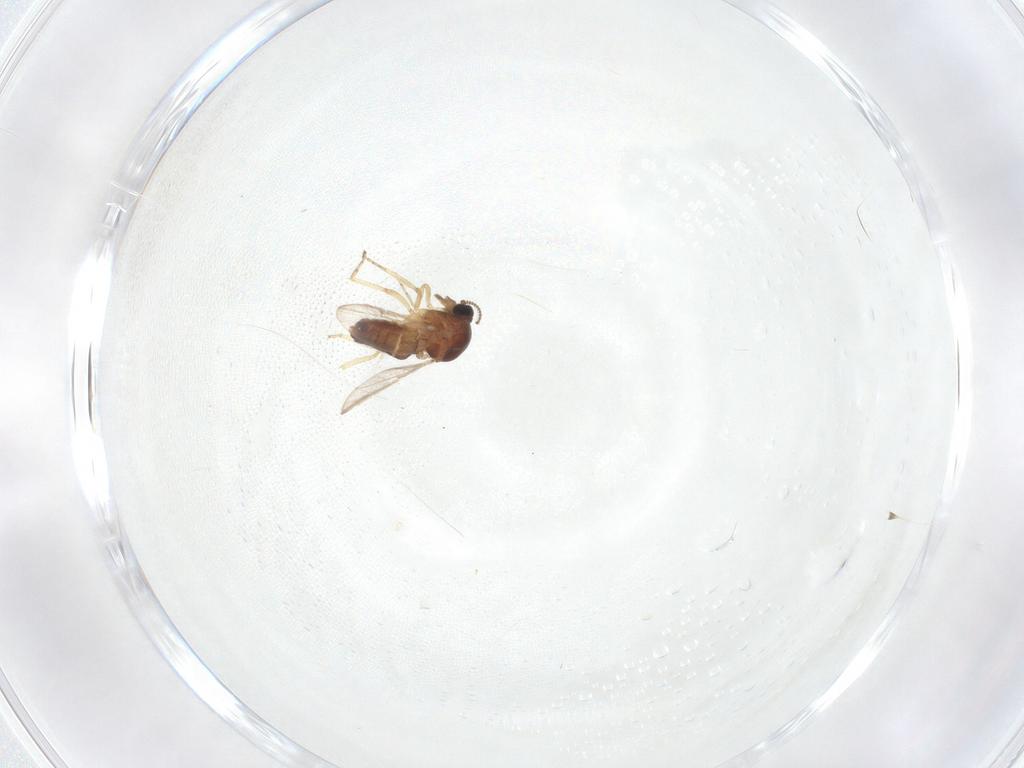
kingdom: Animalia
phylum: Arthropoda
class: Insecta
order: Diptera
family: Ceratopogonidae
